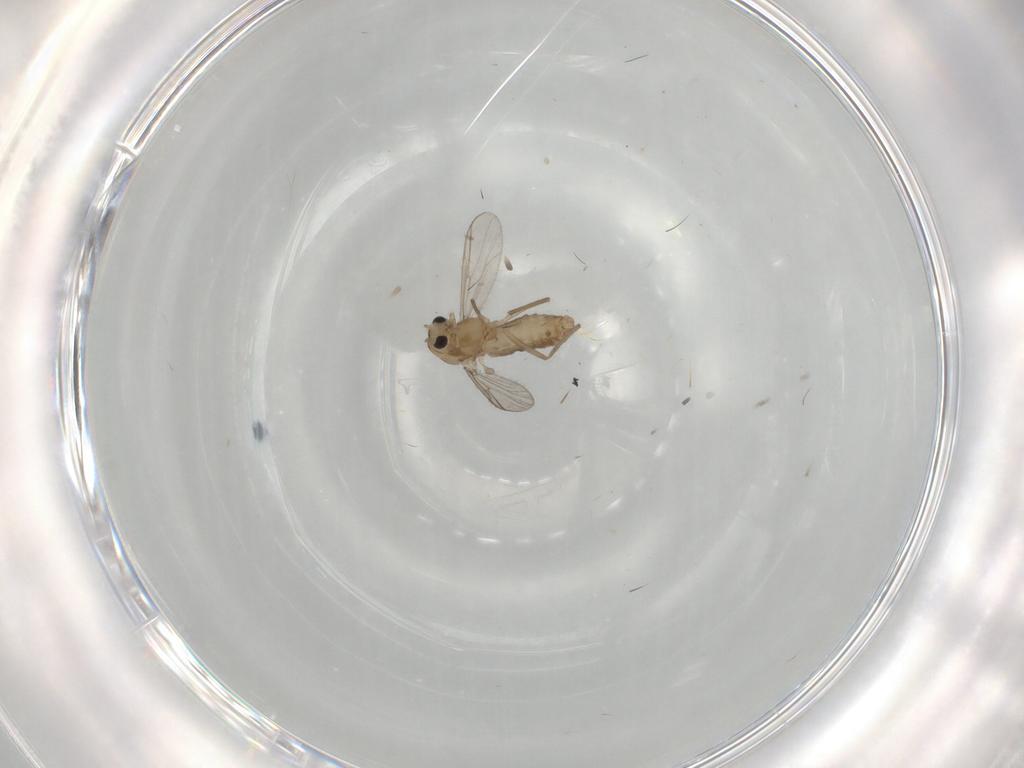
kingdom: Animalia
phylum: Arthropoda
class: Insecta
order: Diptera
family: Chironomidae
